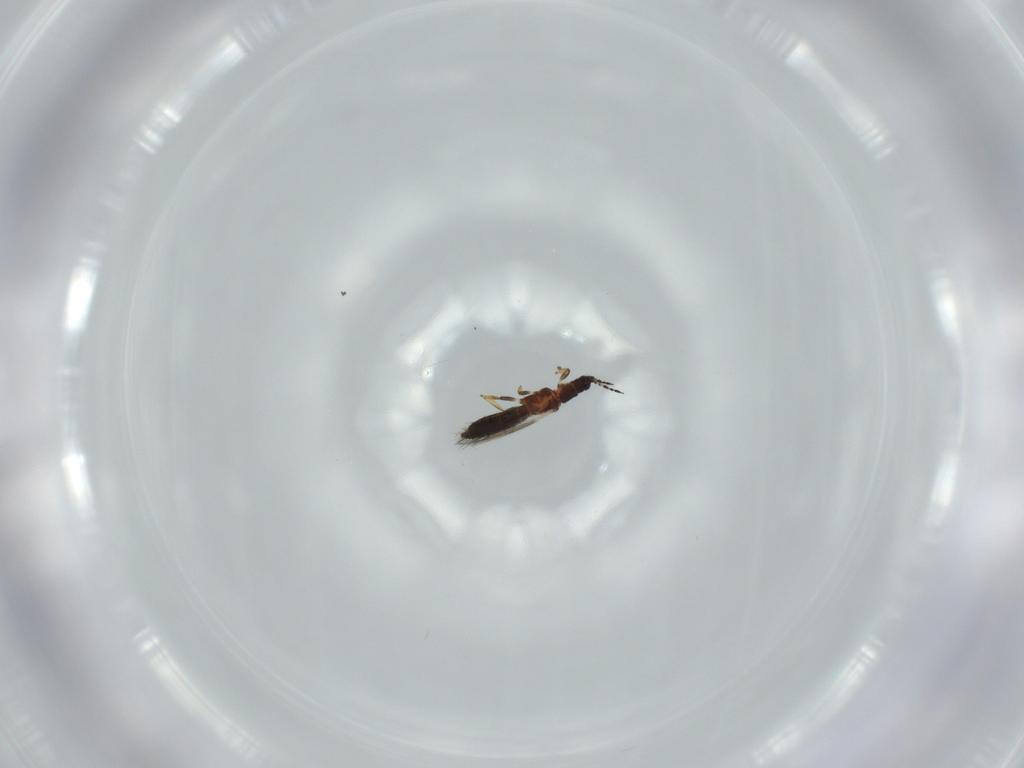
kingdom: Animalia
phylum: Arthropoda
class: Insecta
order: Thysanoptera
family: Thripidae
